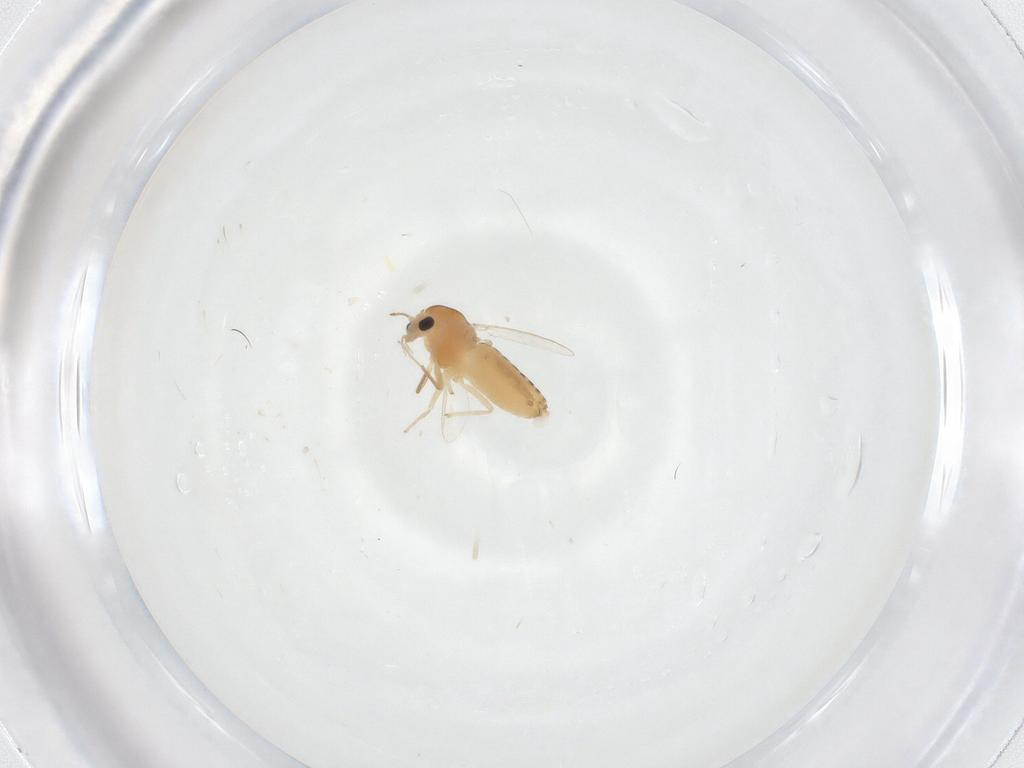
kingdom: Animalia
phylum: Arthropoda
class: Insecta
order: Diptera
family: Chironomidae
